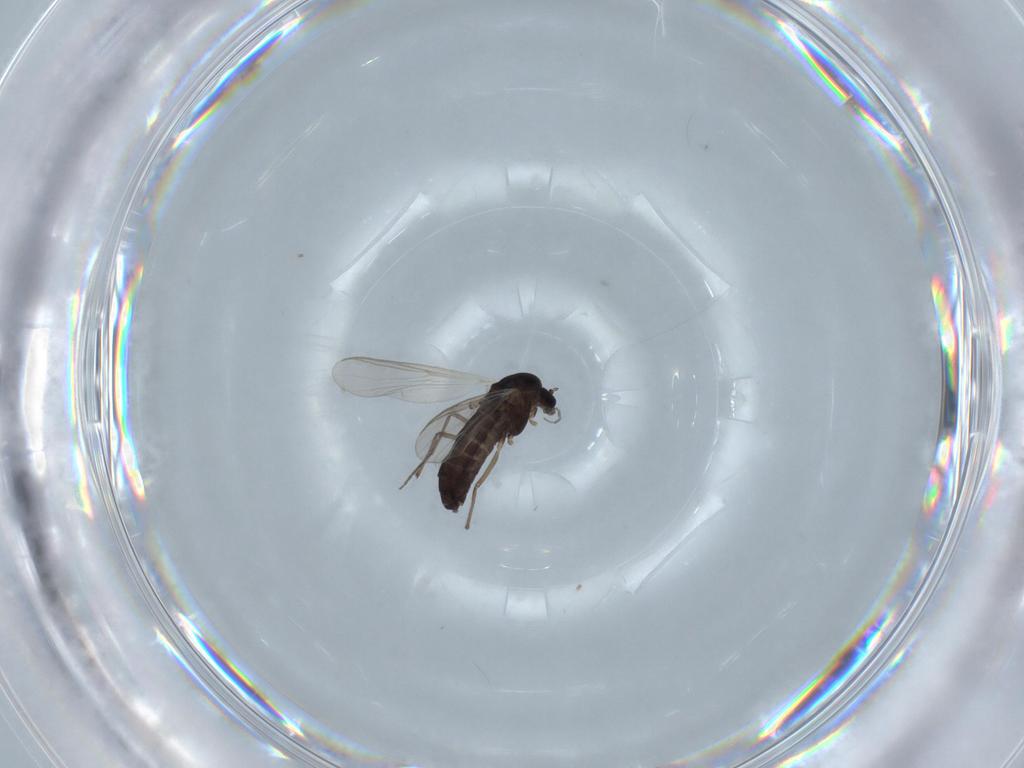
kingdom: Animalia
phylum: Arthropoda
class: Insecta
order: Diptera
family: Chironomidae
